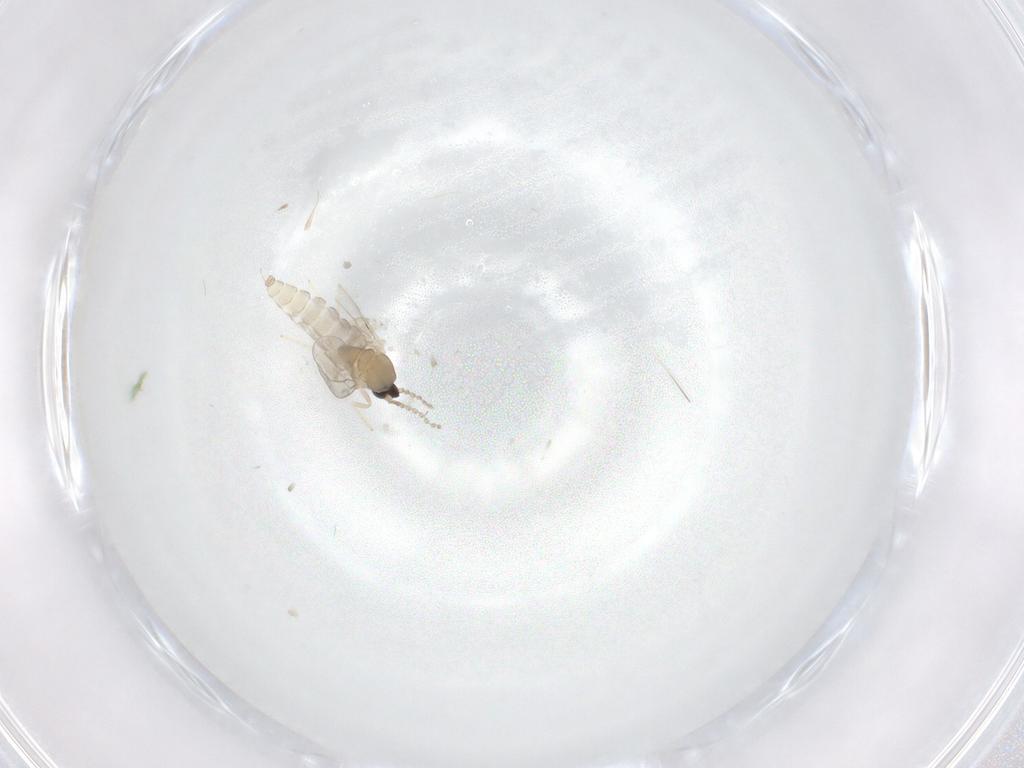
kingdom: Animalia
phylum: Arthropoda
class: Insecta
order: Diptera
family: Cecidomyiidae
